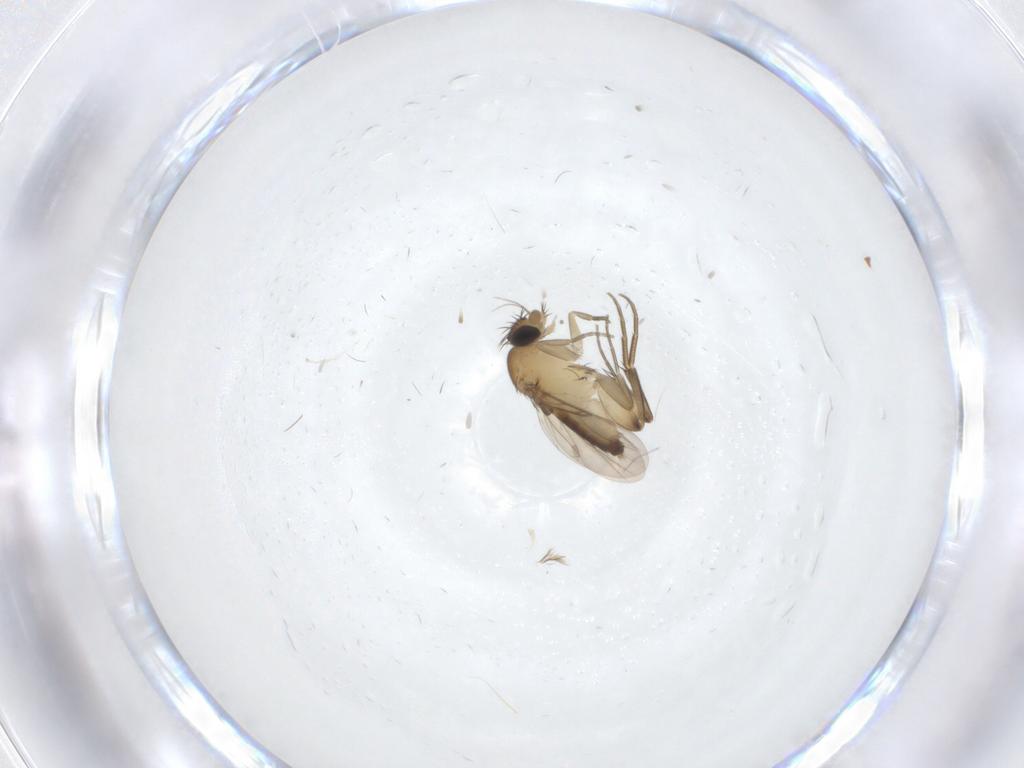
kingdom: Animalia
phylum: Arthropoda
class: Insecta
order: Diptera
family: Phoridae
